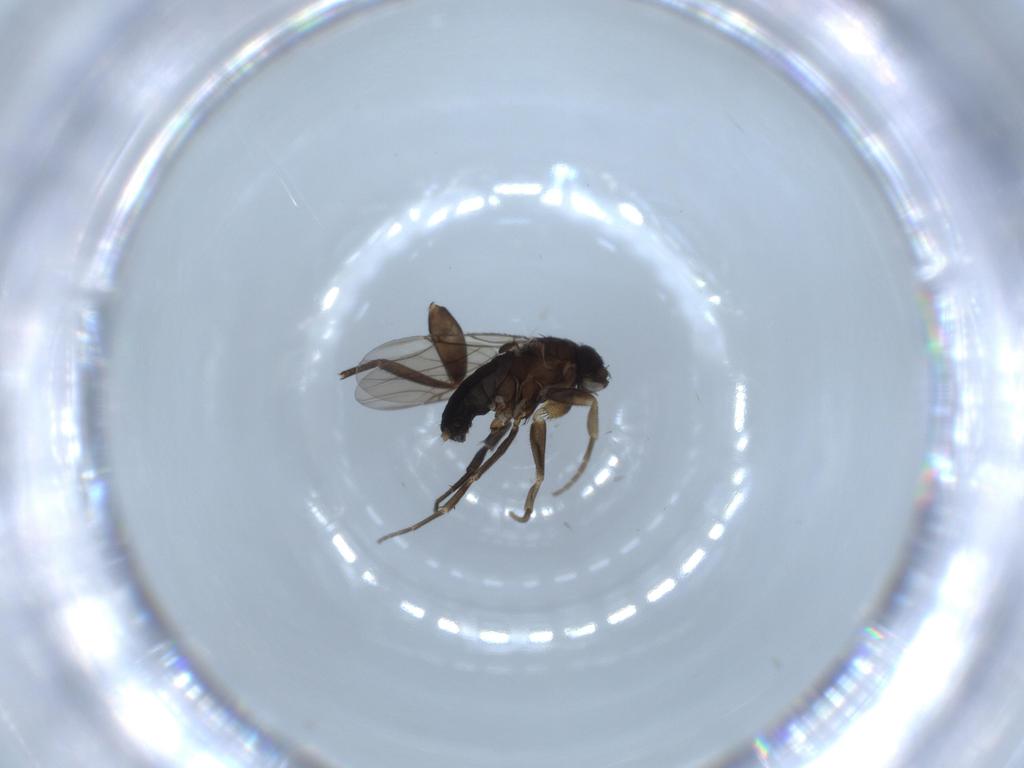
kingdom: Animalia
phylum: Arthropoda
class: Insecta
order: Diptera
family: Phoridae
